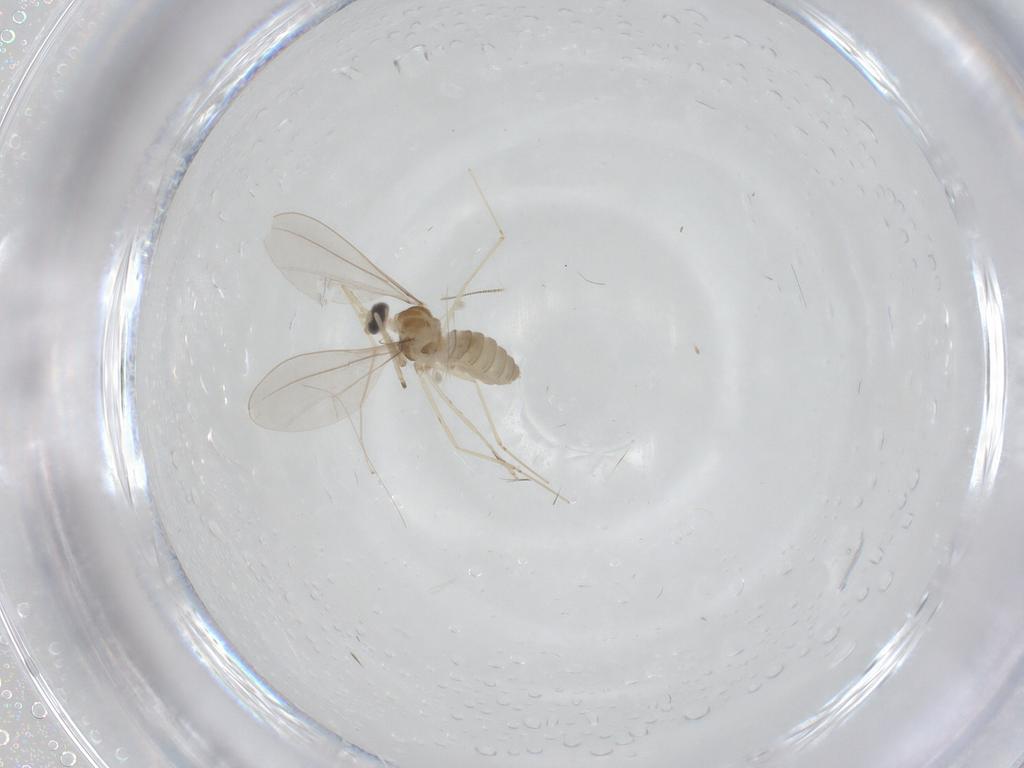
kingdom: Animalia
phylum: Arthropoda
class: Insecta
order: Diptera
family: Cecidomyiidae
